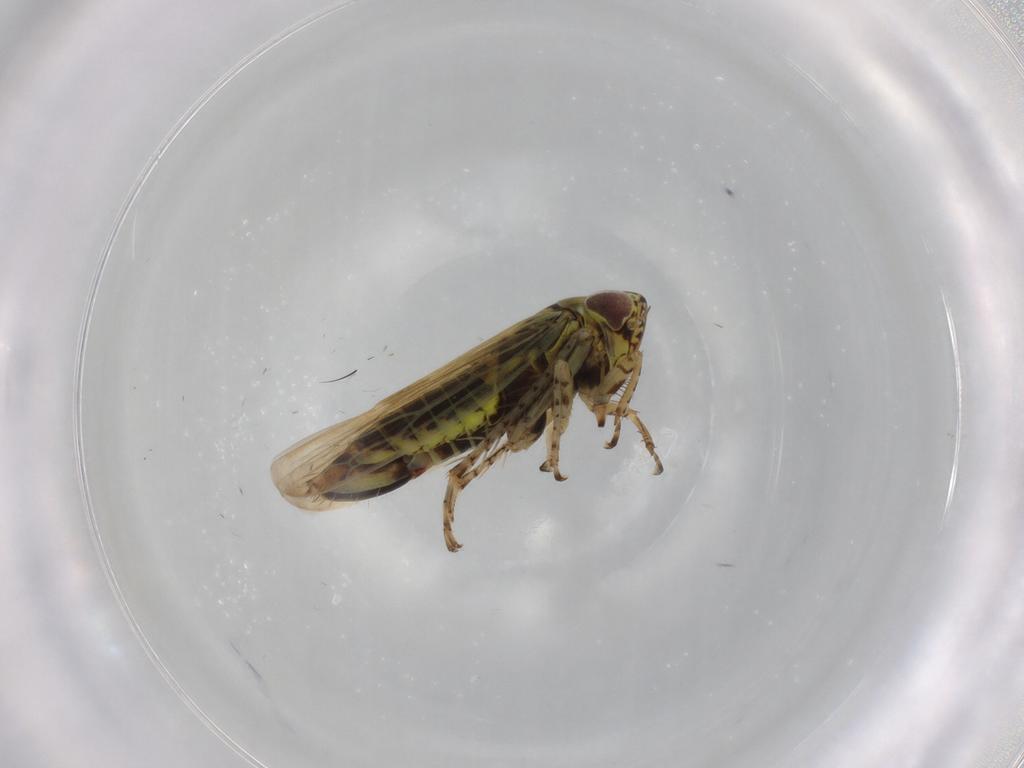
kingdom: Animalia
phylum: Arthropoda
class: Insecta
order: Hemiptera
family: Cicadellidae
